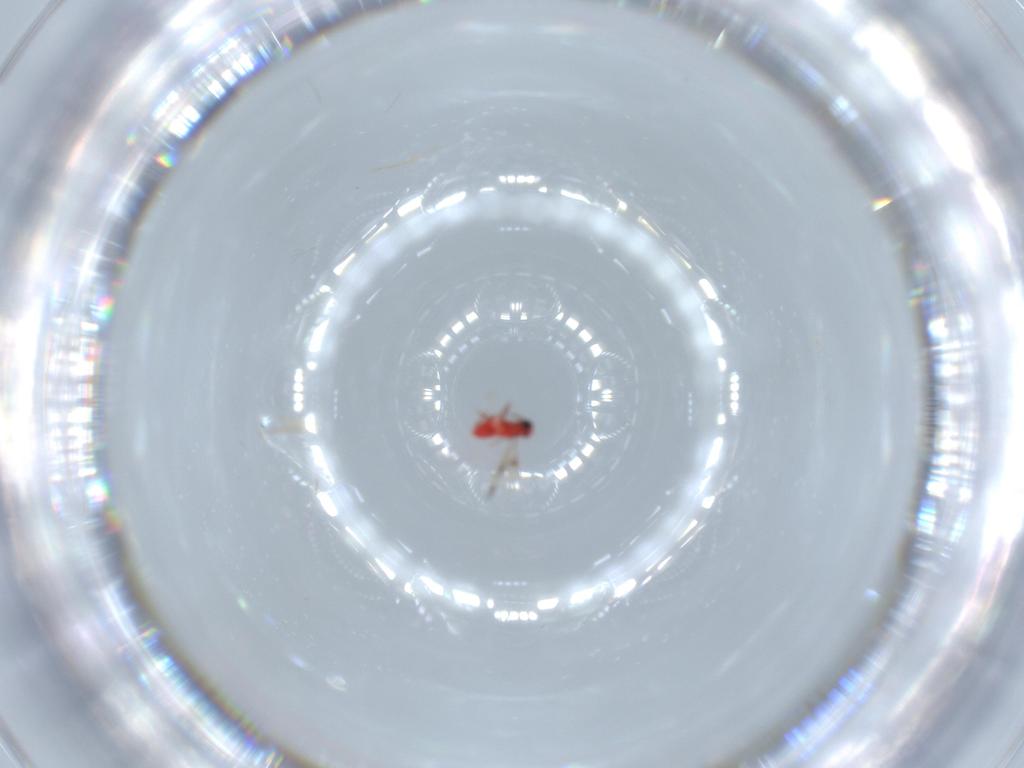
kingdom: Animalia
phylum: Arthropoda
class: Insecta
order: Hymenoptera
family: Trichogrammatidae
